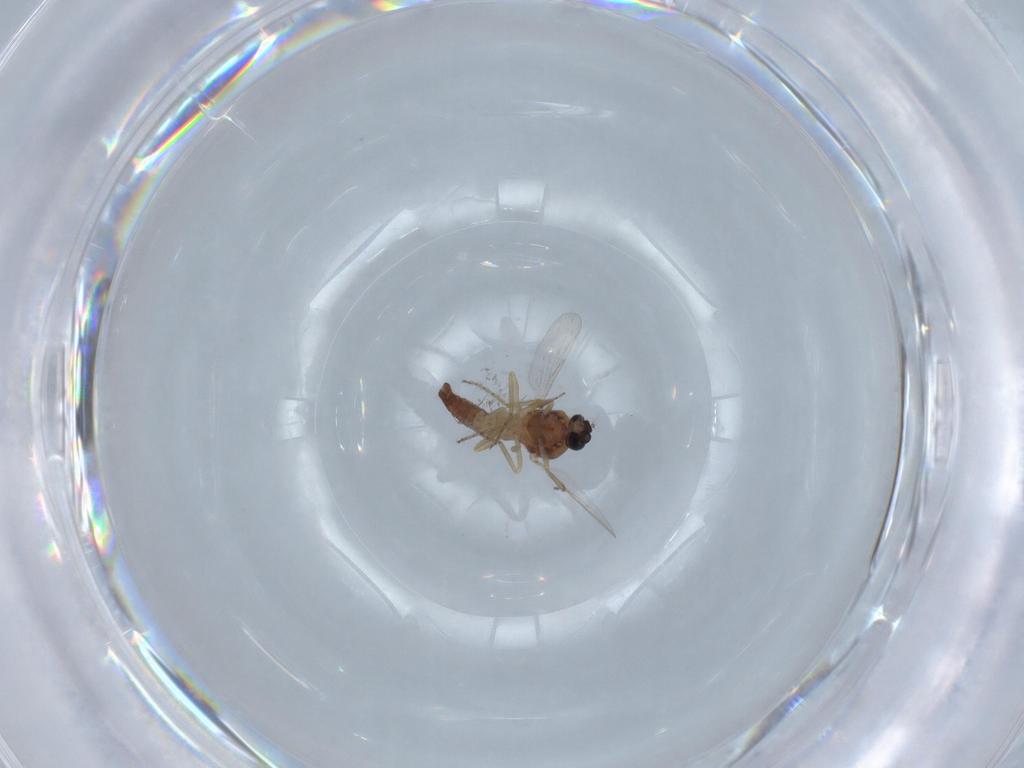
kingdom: Animalia
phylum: Arthropoda
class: Insecta
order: Diptera
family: Ceratopogonidae
